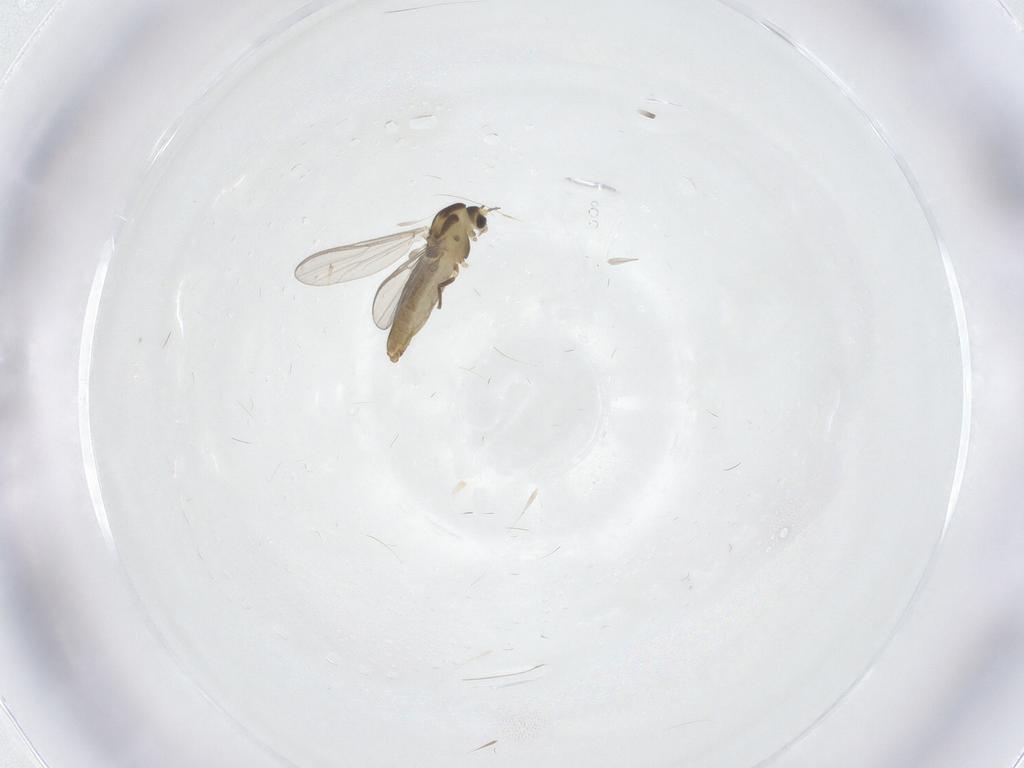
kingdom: Animalia
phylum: Arthropoda
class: Insecta
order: Diptera
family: Chironomidae
